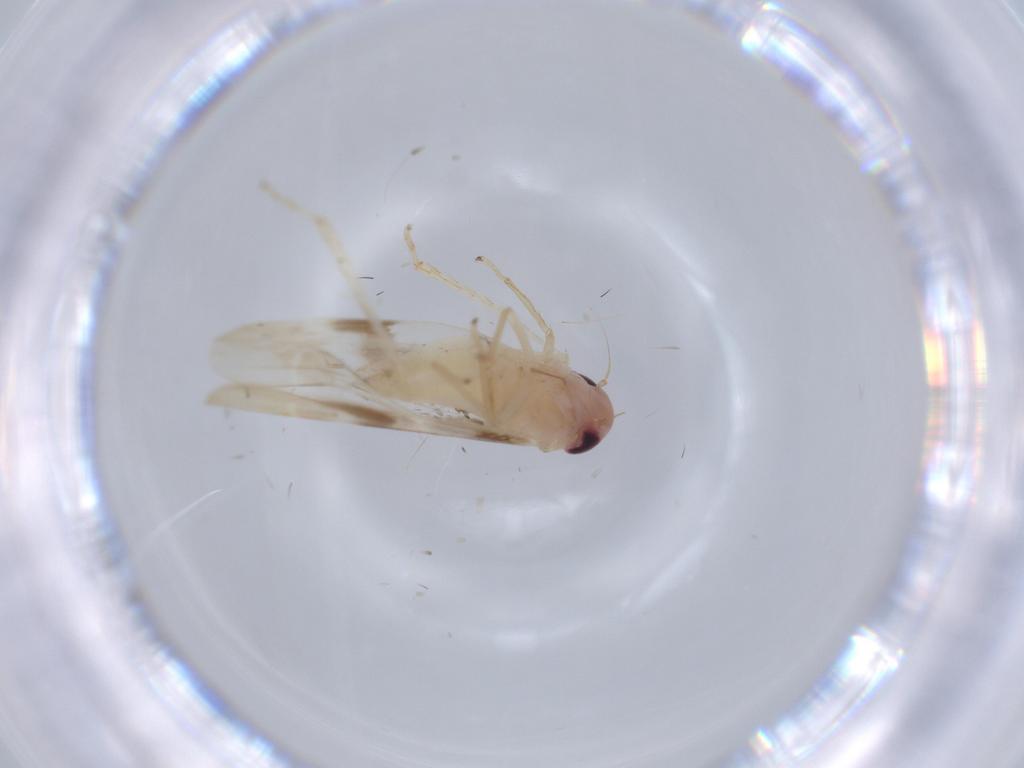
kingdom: Animalia
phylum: Arthropoda
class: Insecta
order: Hemiptera
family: Cicadellidae
